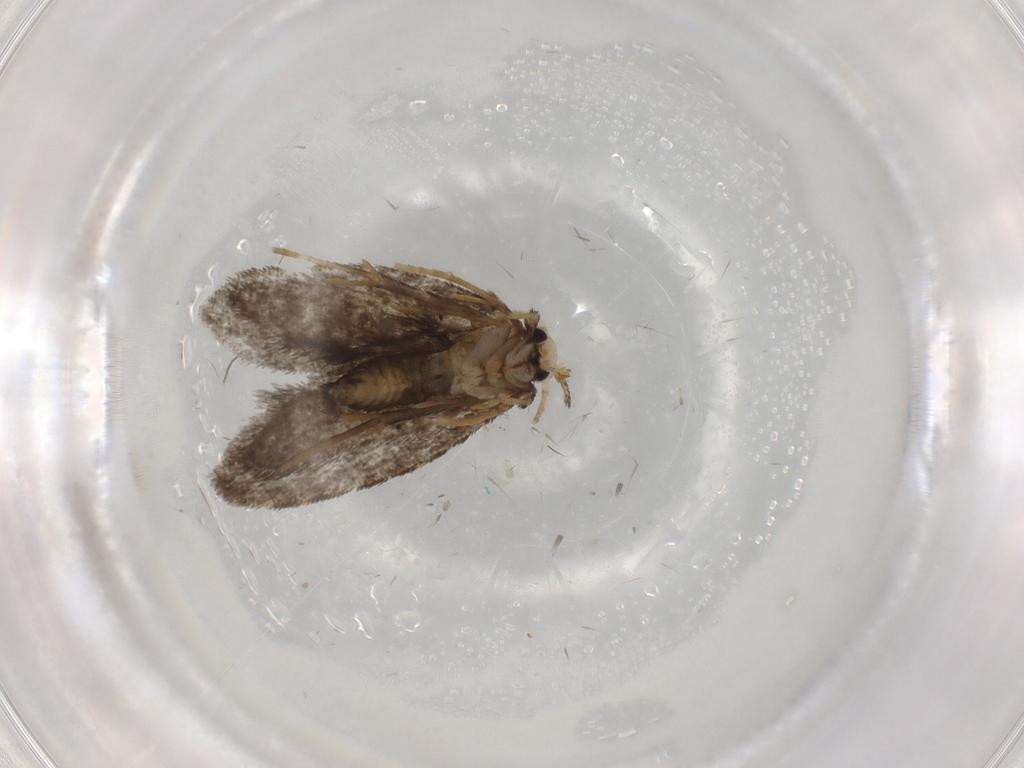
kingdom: Animalia
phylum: Arthropoda
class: Insecta
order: Lepidoptera
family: Psychidae
